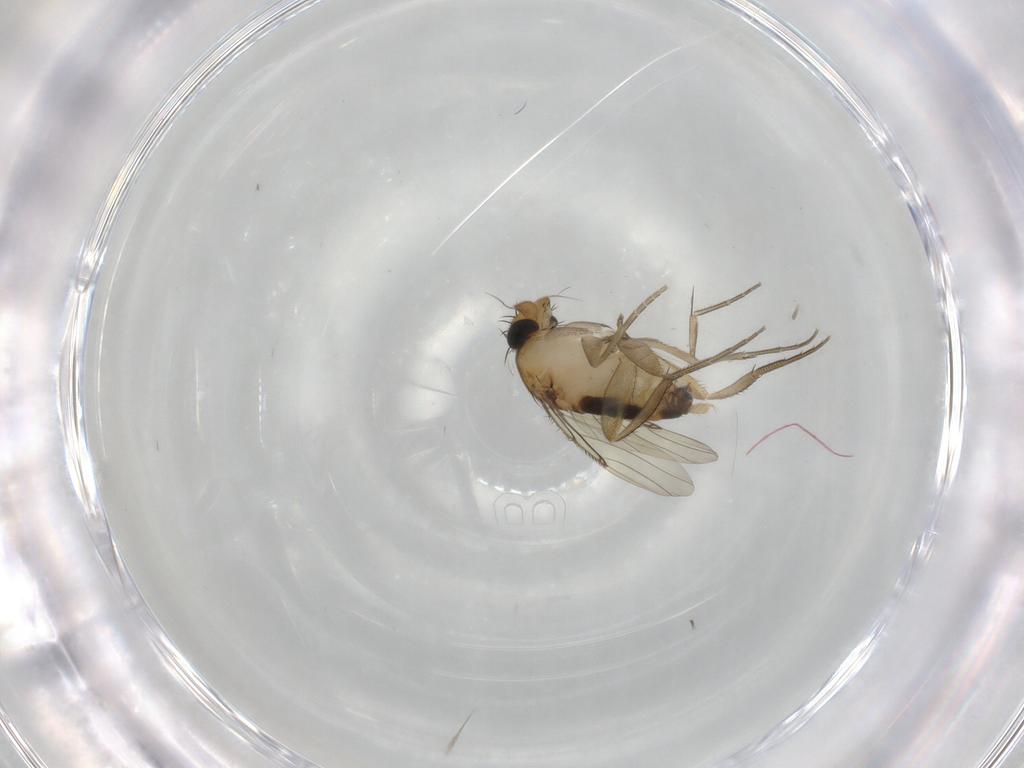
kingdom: Animalia
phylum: Arthropoda
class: Insecta
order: Diptera
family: Phoridae
